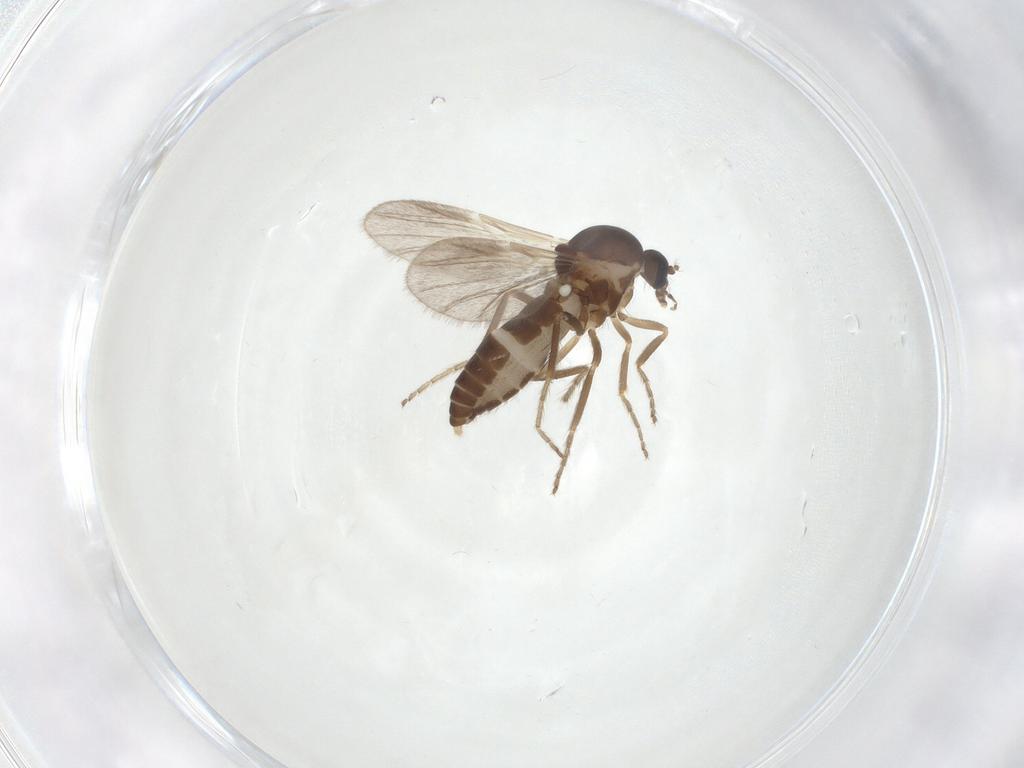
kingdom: Animalia
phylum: Arthropoda
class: Insecta
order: Diptera
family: Ceratopogonidae
